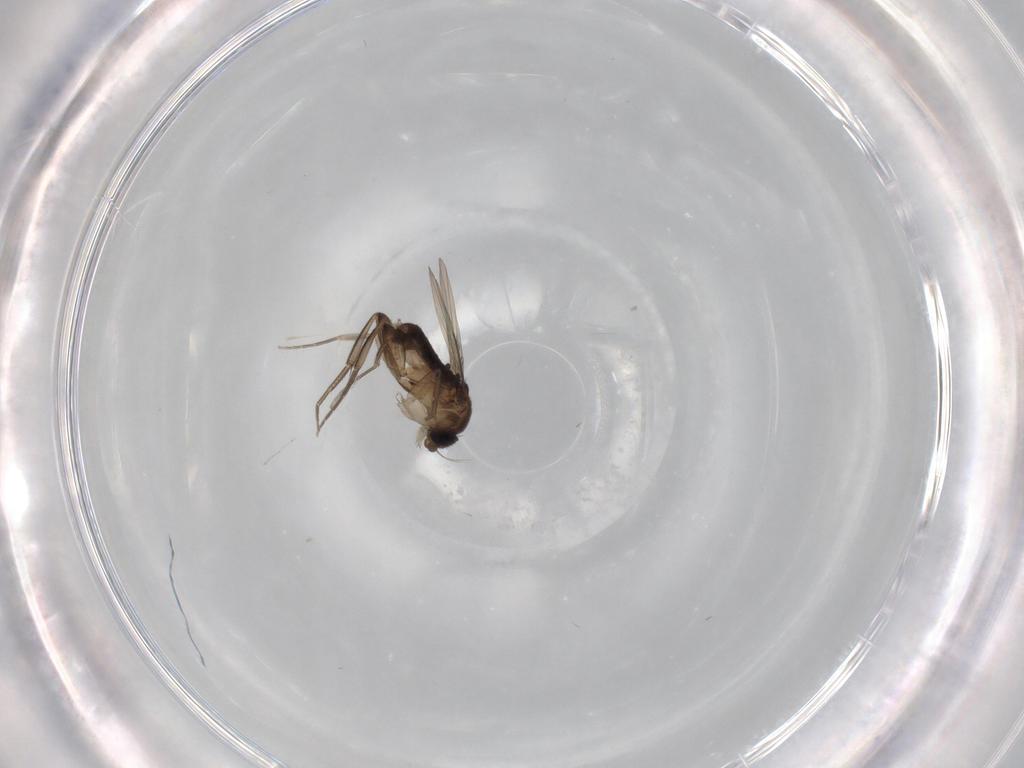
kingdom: Animalia
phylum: Arthropoda
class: Insecta
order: Diptera
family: Phoridae
